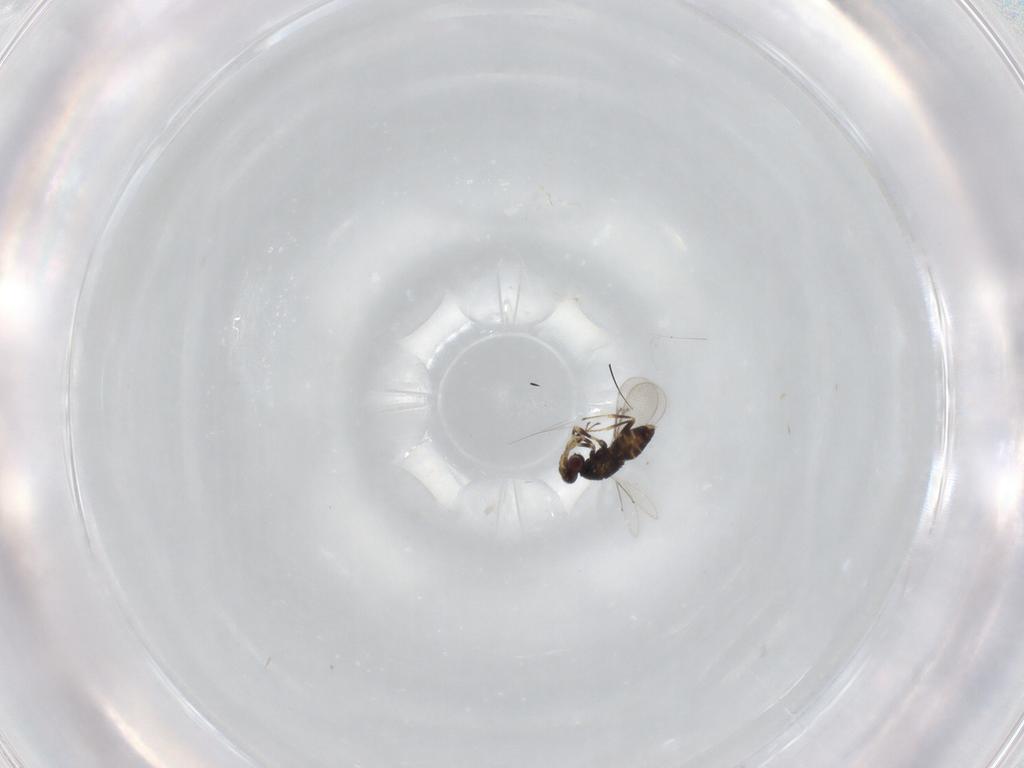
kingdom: Animalia
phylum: Arthropoda
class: Insecta
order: Hymenoptera
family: Aphelinidae
